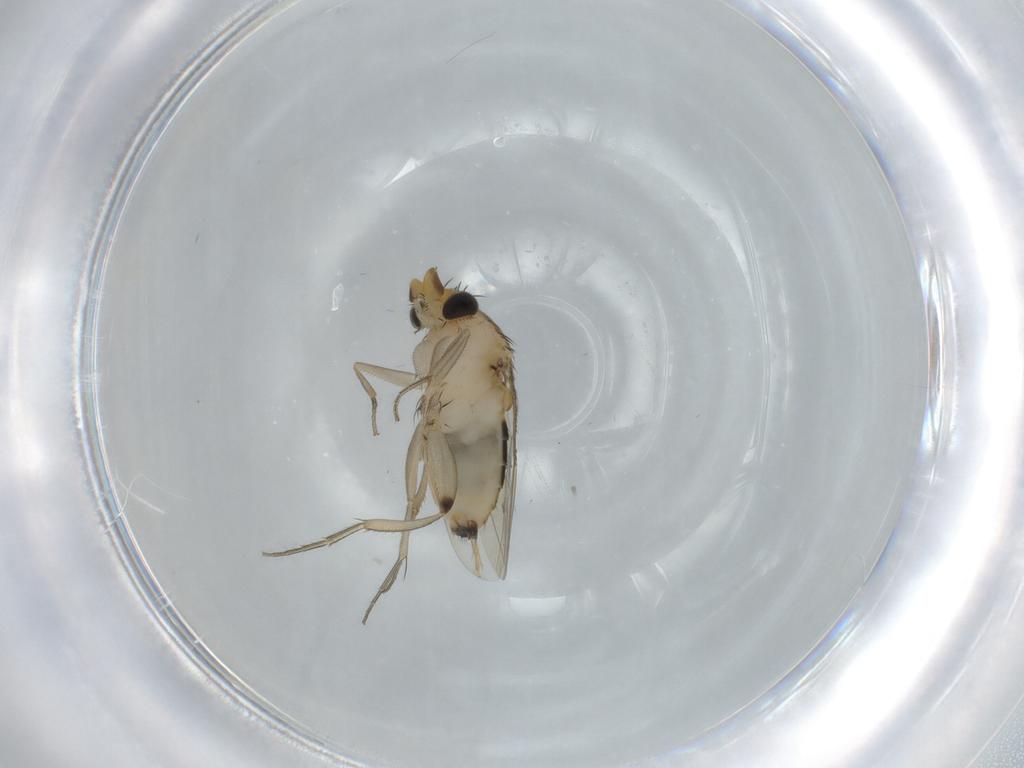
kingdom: Animalia
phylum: Arthropoda
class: Insecta
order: Diptera
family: Phoridae
